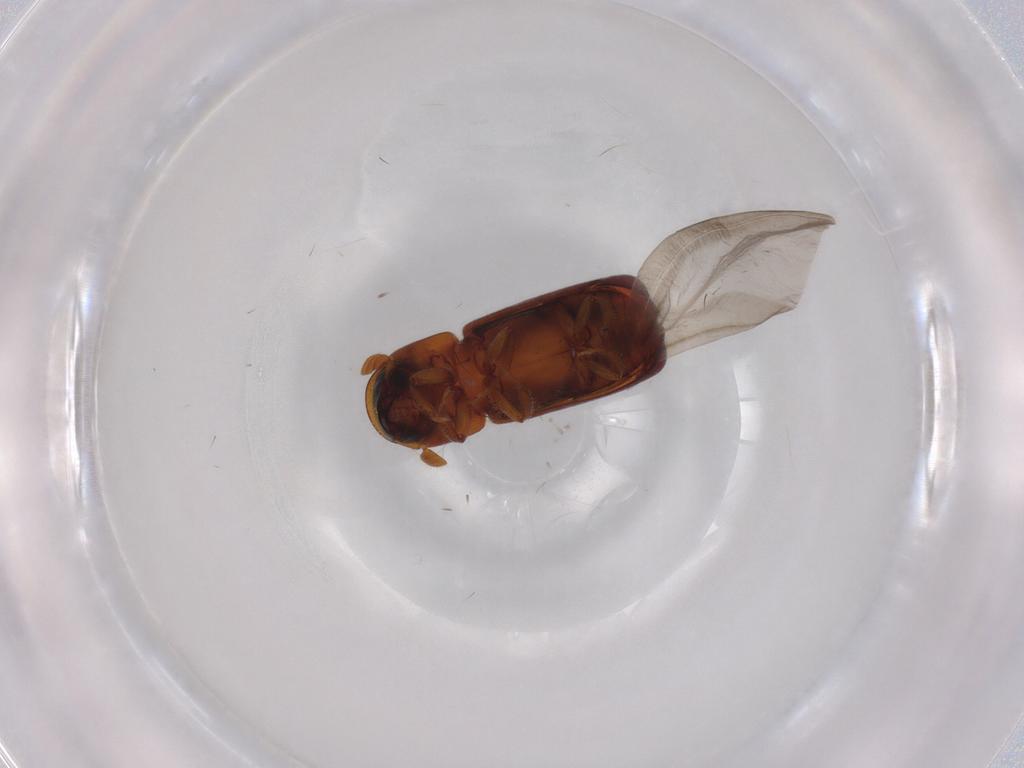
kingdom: Animalia
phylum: Arthropoda
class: Insecta
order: Coleoptera
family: Curculionidae
